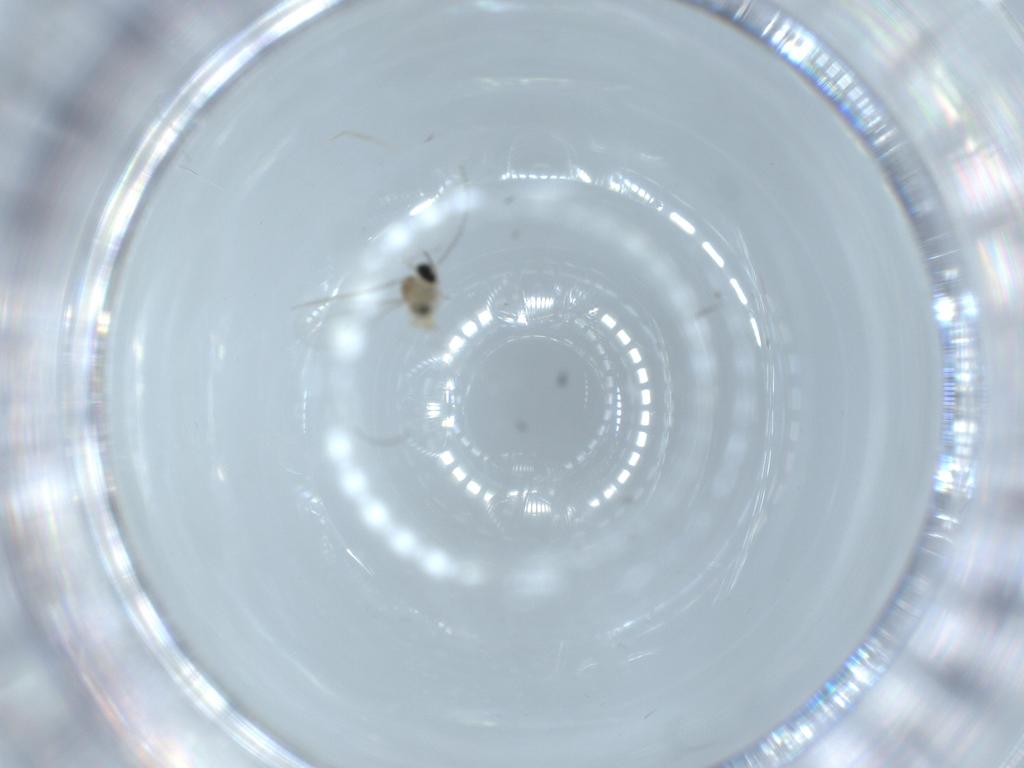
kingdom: Animalia
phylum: Arthropoda
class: Insecta
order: Diptera
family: Cecidomyiidae
